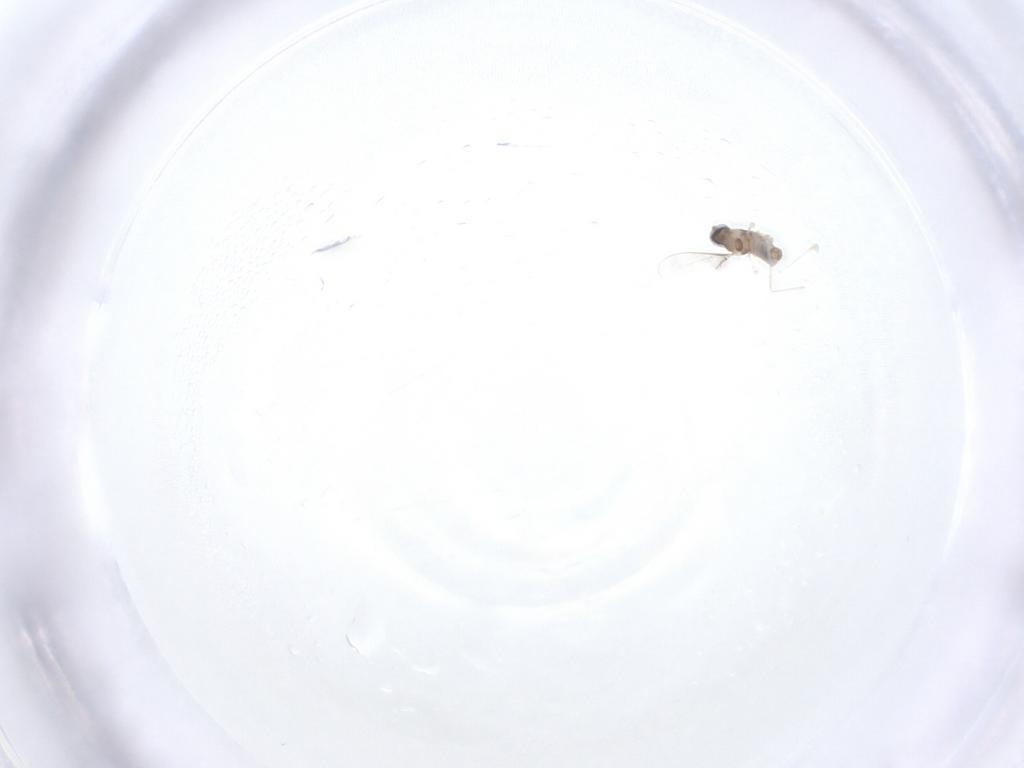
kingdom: Animalia
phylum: Arthropoda
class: Insecta
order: Diptera
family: Cecidomyiidae
